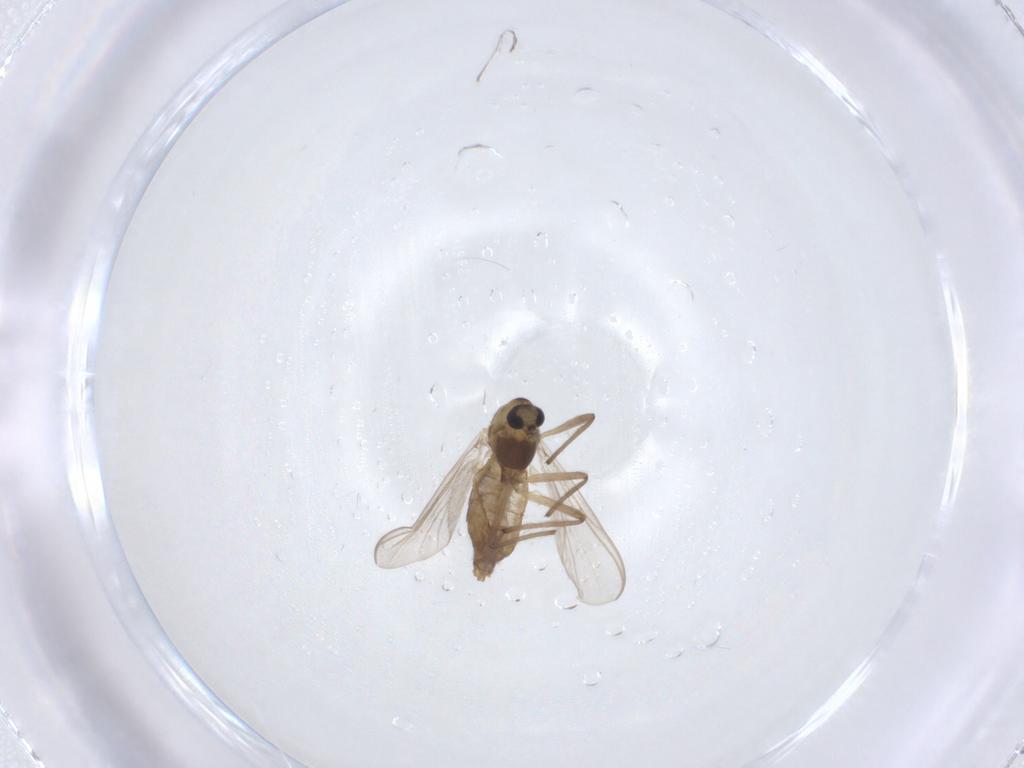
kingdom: Animalia
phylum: Arthropoda
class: Insecta
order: Diptera
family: Chironomidae
